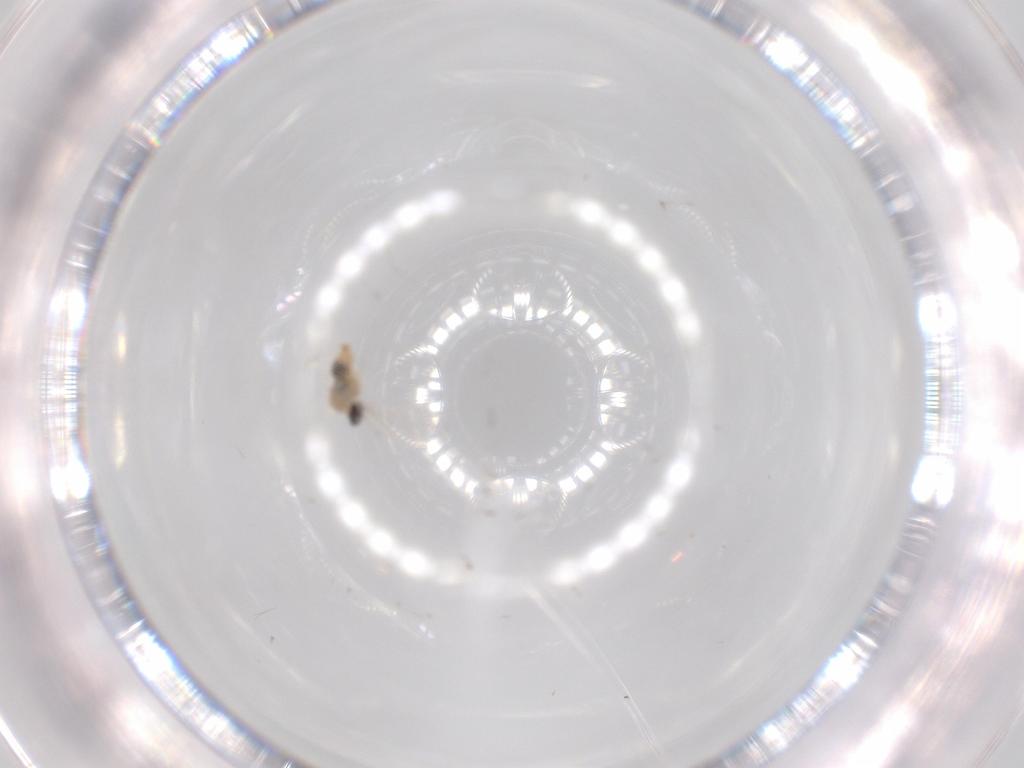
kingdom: Animalia
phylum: Arthropoda
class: Insecta
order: Diptera
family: Cecidomyiidae
